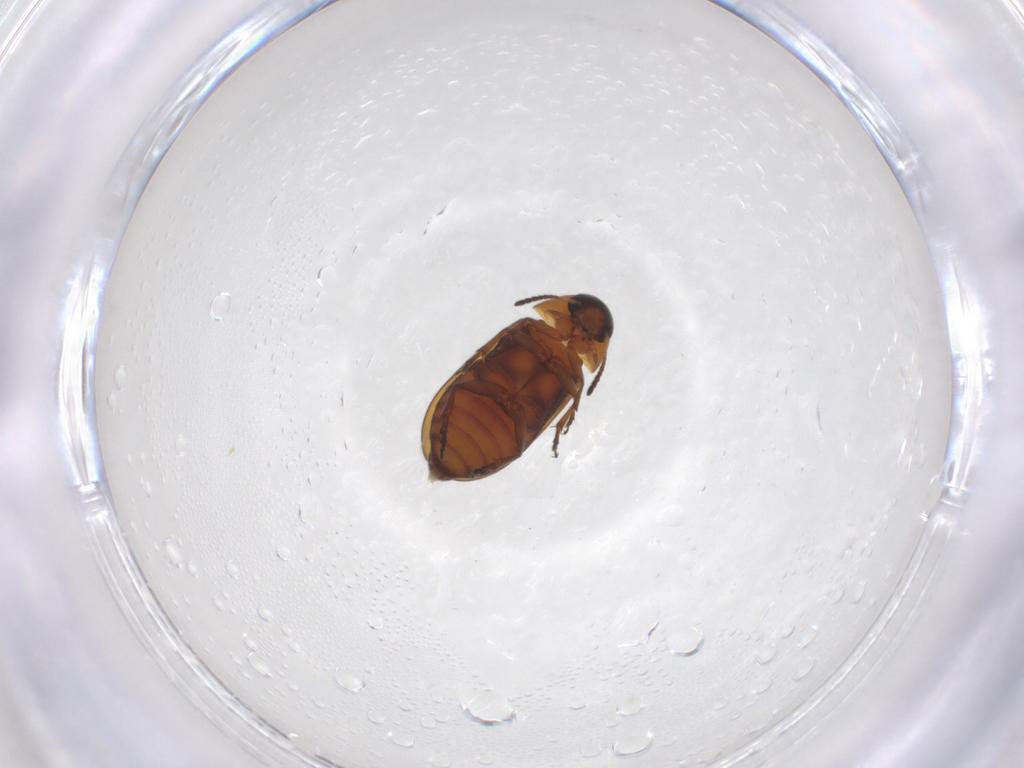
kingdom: Animalia
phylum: Arthropoda
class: Insecta
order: Coleoptera
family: Scraptiidae
